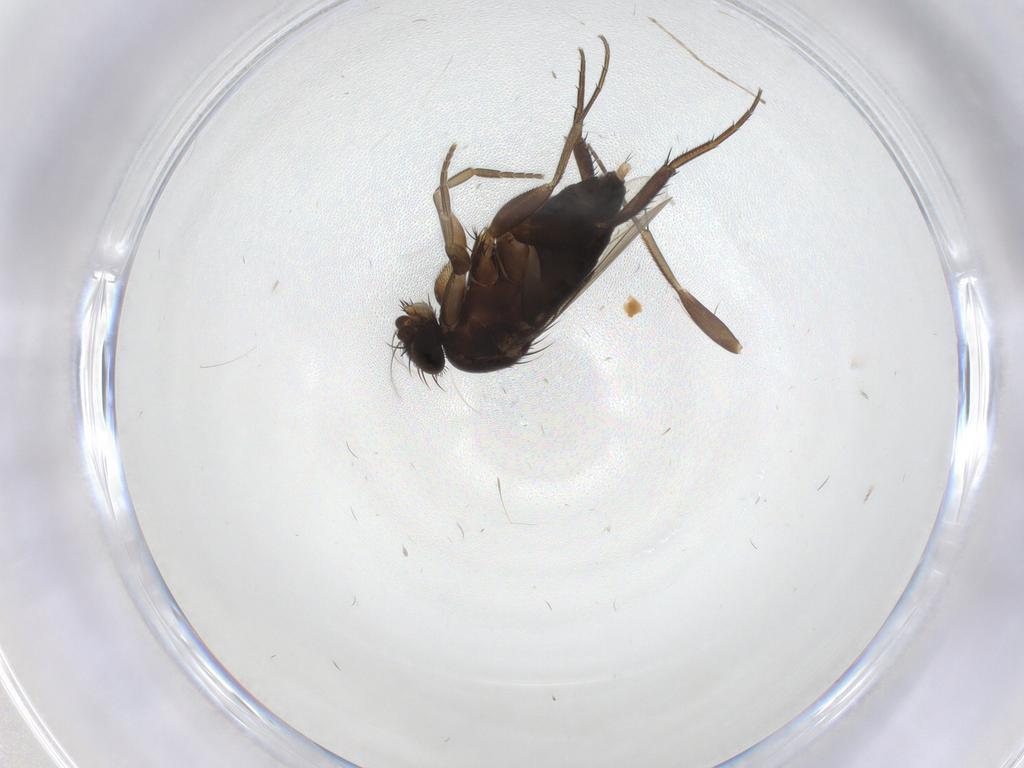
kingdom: Animalia
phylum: Arthropoda
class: Insecta
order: Diptera
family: Phoridae
